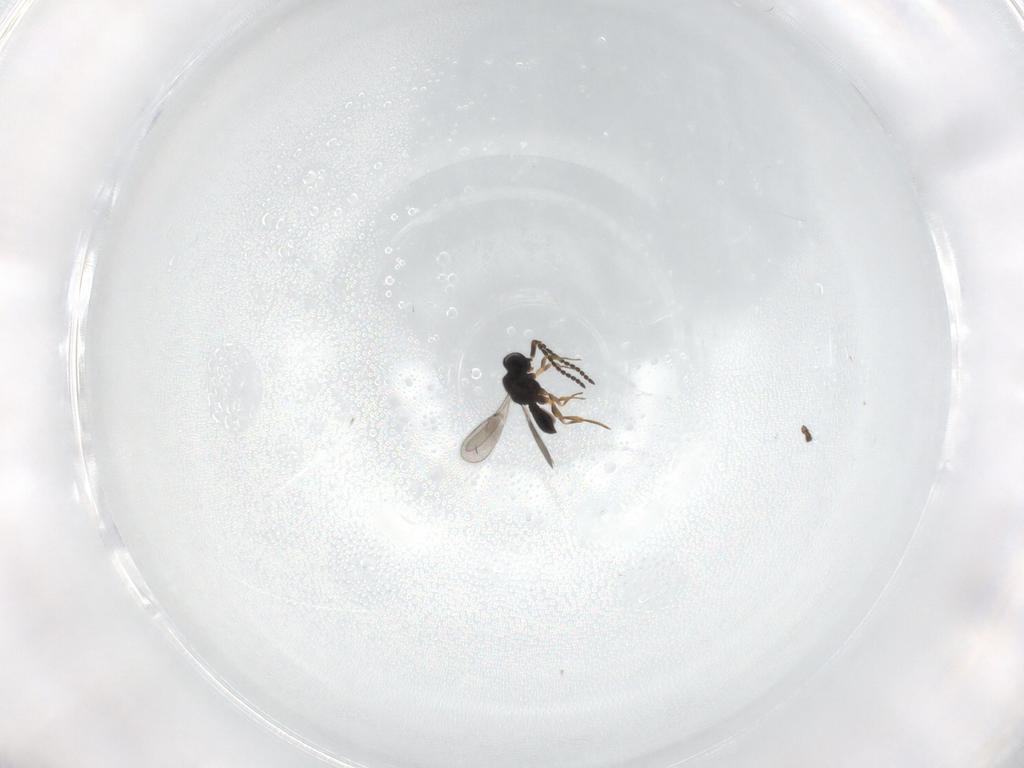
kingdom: Animalia
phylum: Arthropoda
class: Insecta
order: Hymenoptera
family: Scelionidae
